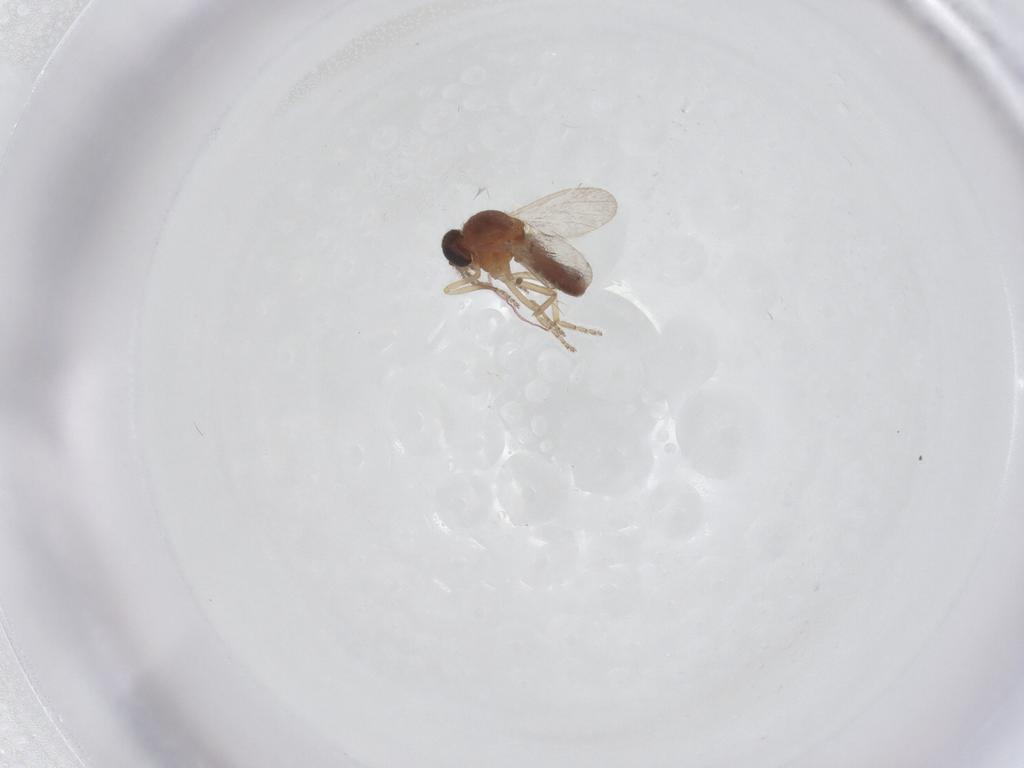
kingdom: Animalia
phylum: Arthropoda
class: Insecta
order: Diptera
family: Ceratopogonidae
